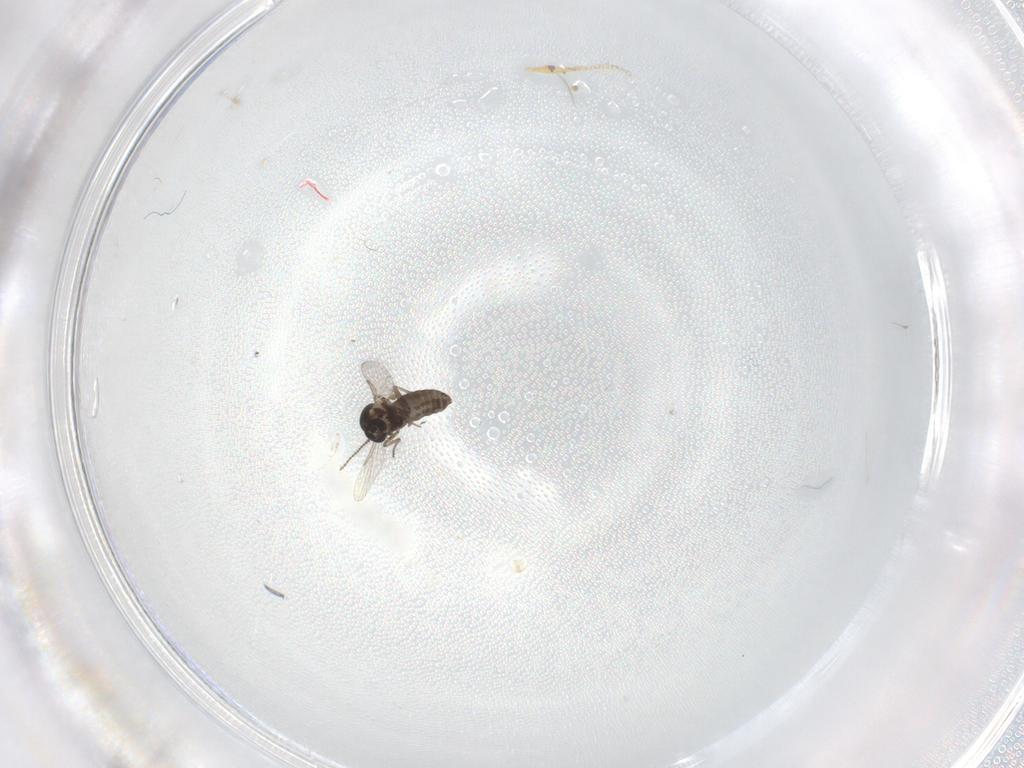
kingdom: Animalia
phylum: Arthropoda
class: Insecta
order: Diptera
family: Ceratopogonidae
